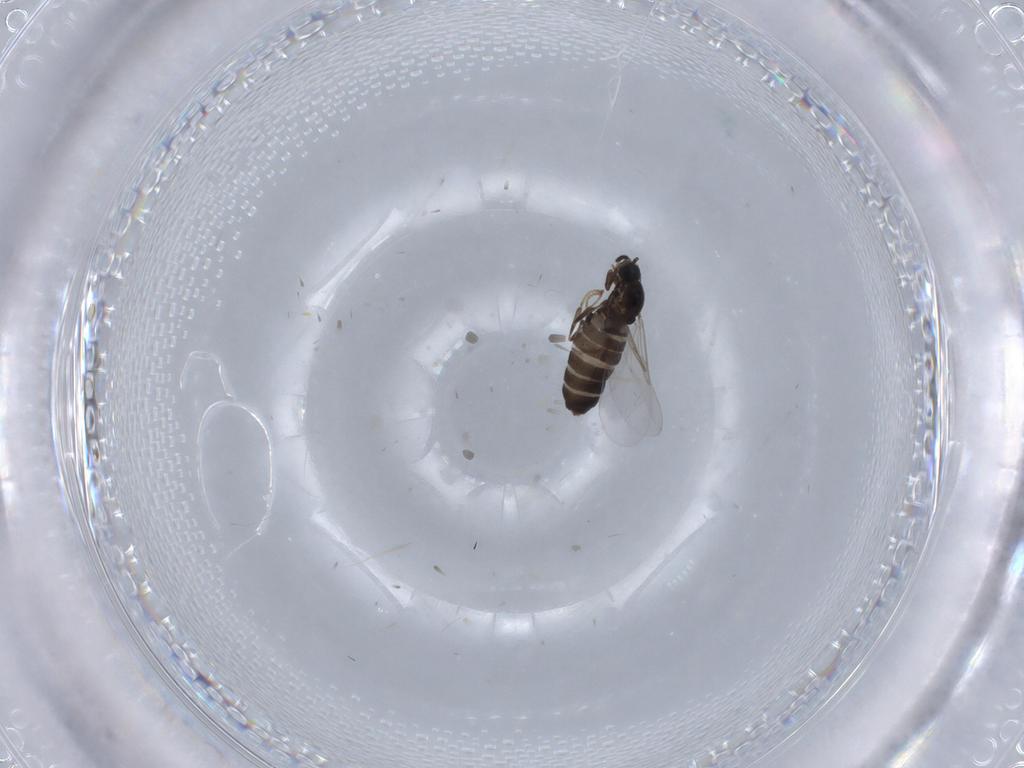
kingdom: Animalia
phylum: Arthropoda
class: Insecta
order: Diptera
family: Scatopsidae
